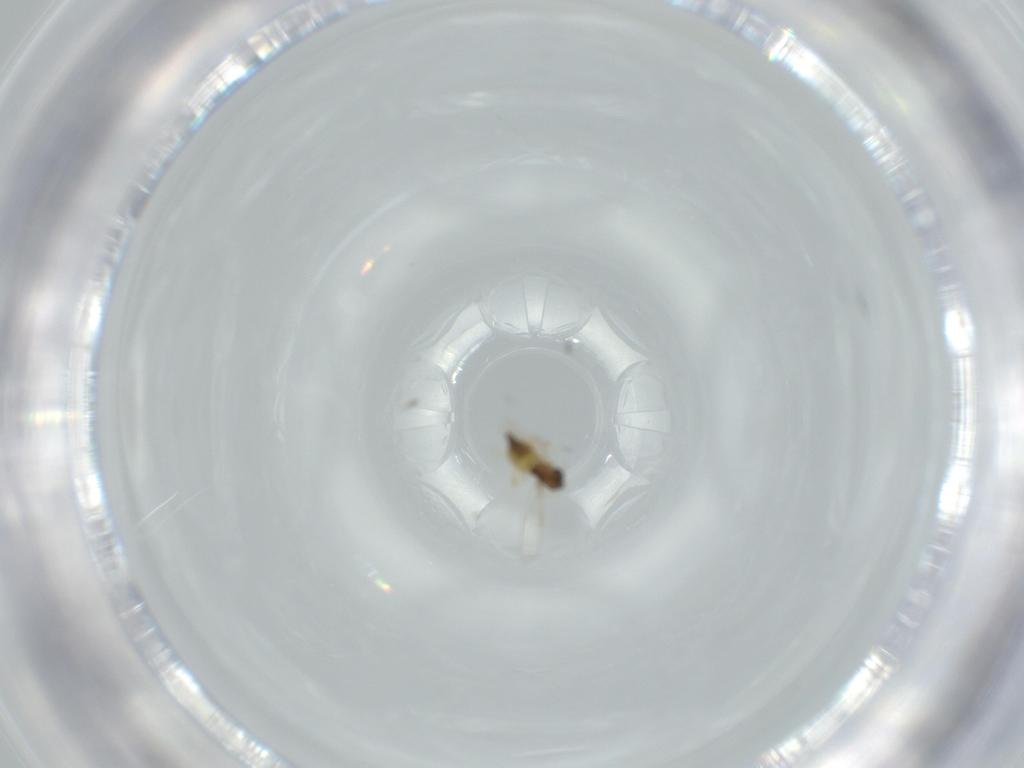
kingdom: Animalia
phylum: Arthropoda
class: Insecta
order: Diptera
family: Chironomidae
